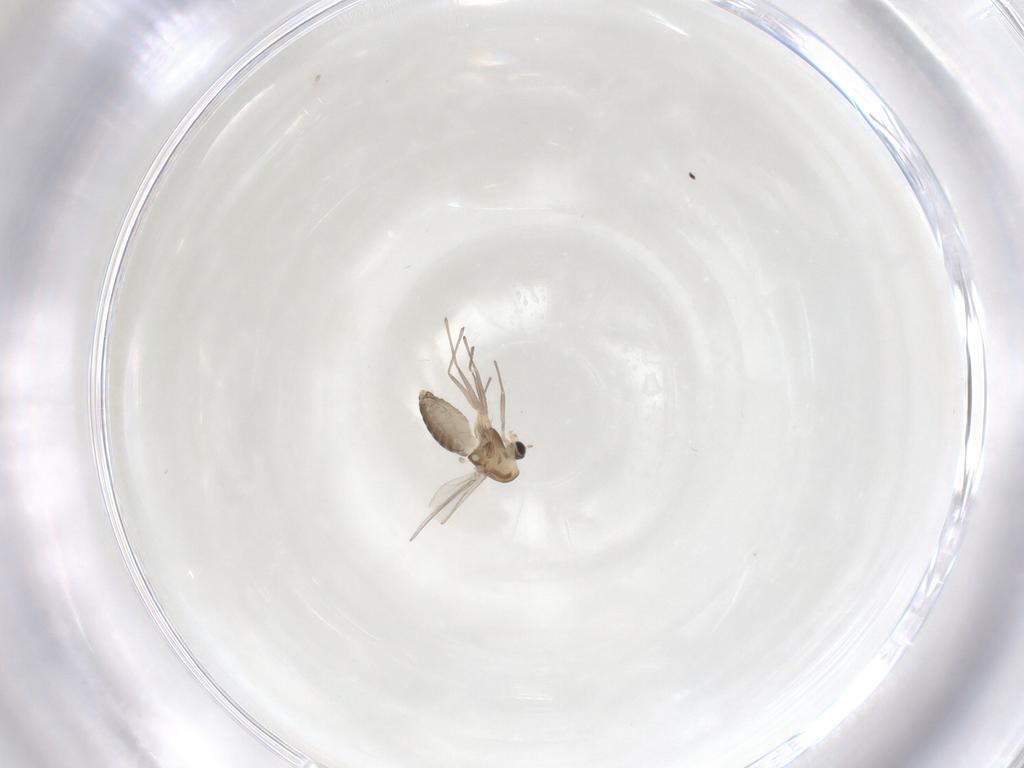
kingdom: Animalia
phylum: Arthropoda
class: Insecta
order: Diptera
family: Chironomidae
